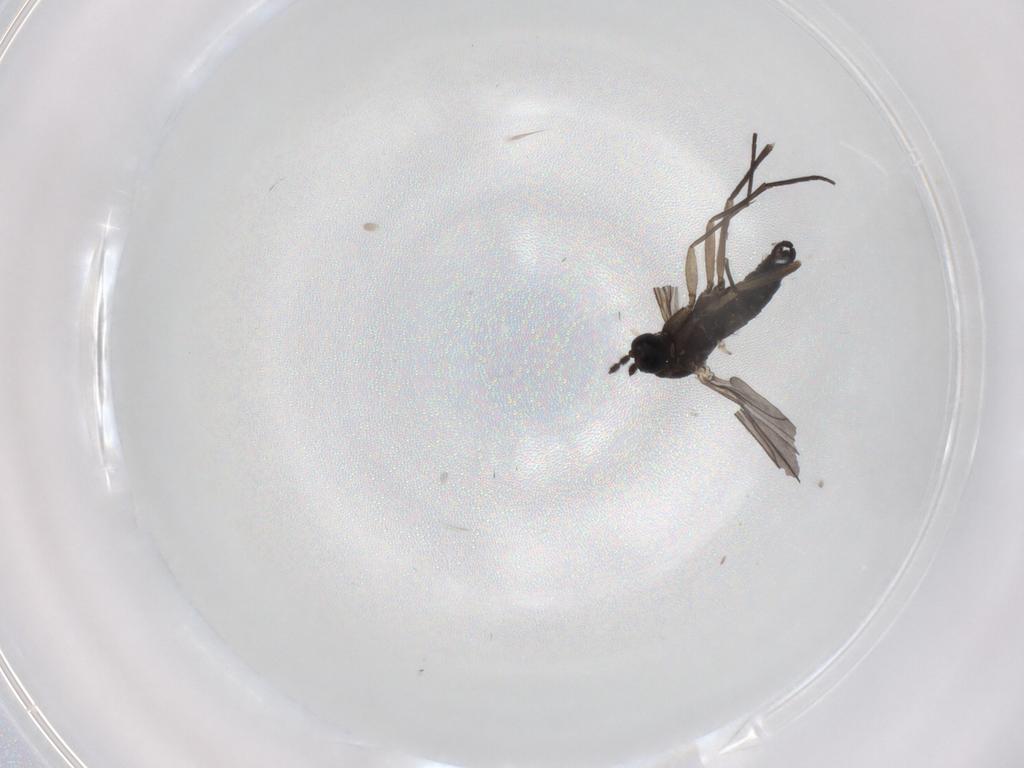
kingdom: Animalia
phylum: Arthropoda
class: Insecta
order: Diptera
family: Sciaridae
